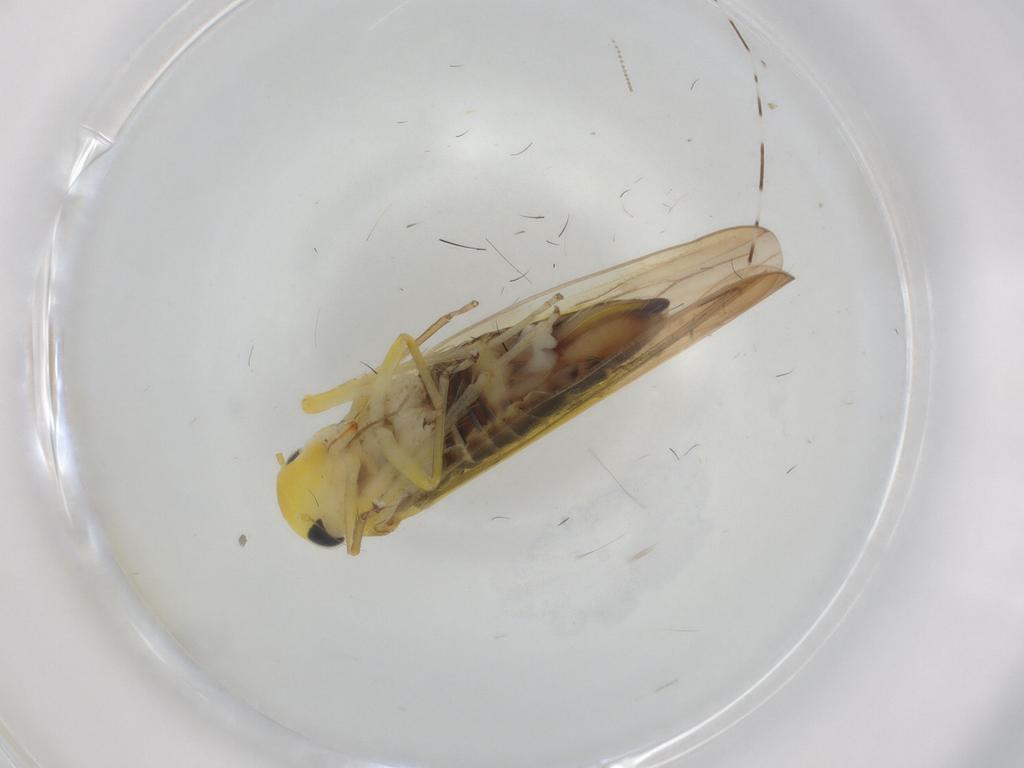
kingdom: Animalia
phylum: Arthropoda
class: Insecta
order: Hemiptera
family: Cicadellidae
